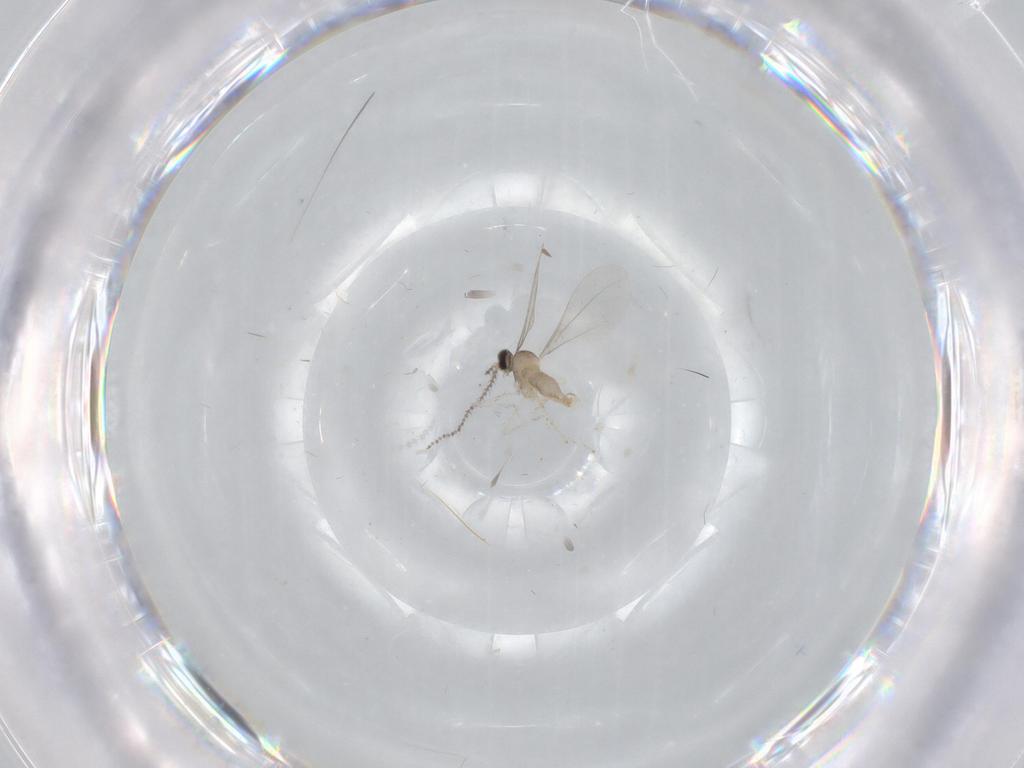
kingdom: Animalia
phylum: Arthropoda
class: Insecta
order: Diptera
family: Cecidomyiidae
